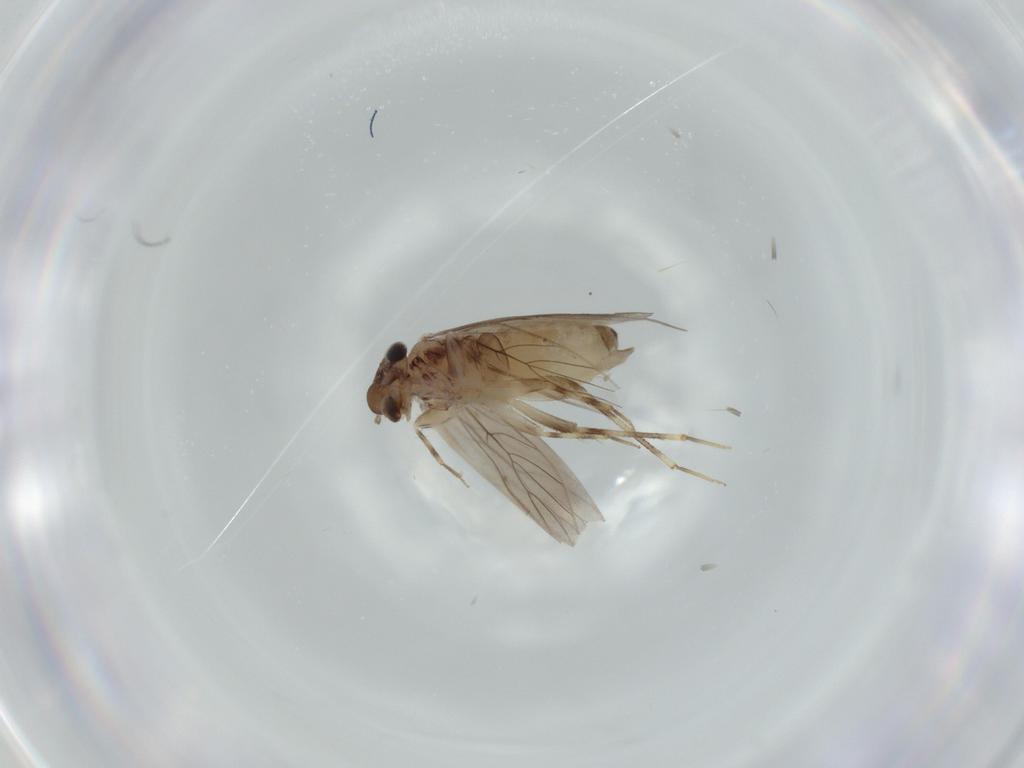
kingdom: Animalia
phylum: Arthropoda
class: Insecta
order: Psocodea
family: Lepidopsocidae
